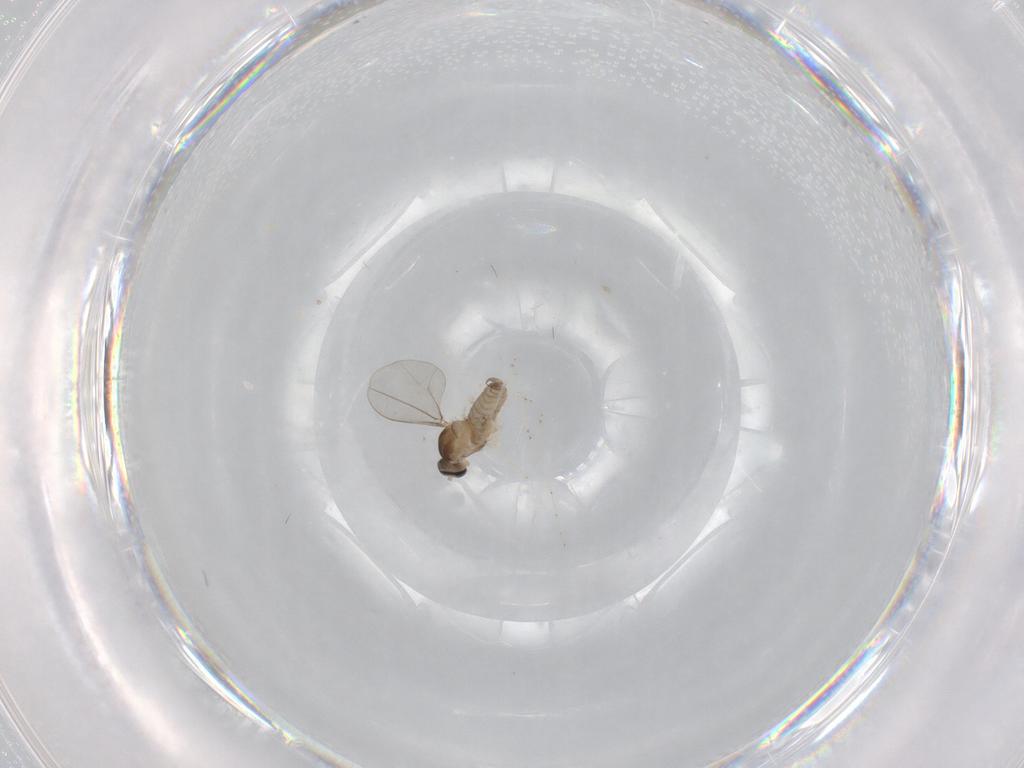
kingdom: Animalia
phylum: Arthropoda
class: Insecta
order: Diptera
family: Cecidomyiidae
